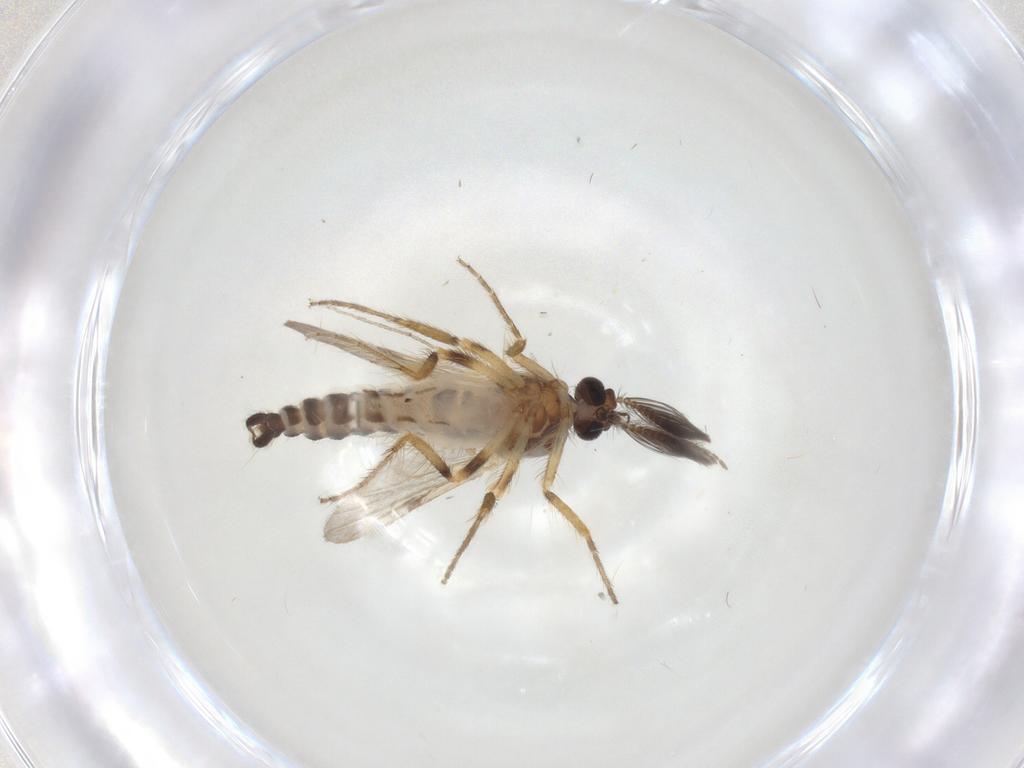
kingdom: Animalia
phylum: Arthropoda
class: Insecta
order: Diptera
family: Ceratopogonidae
